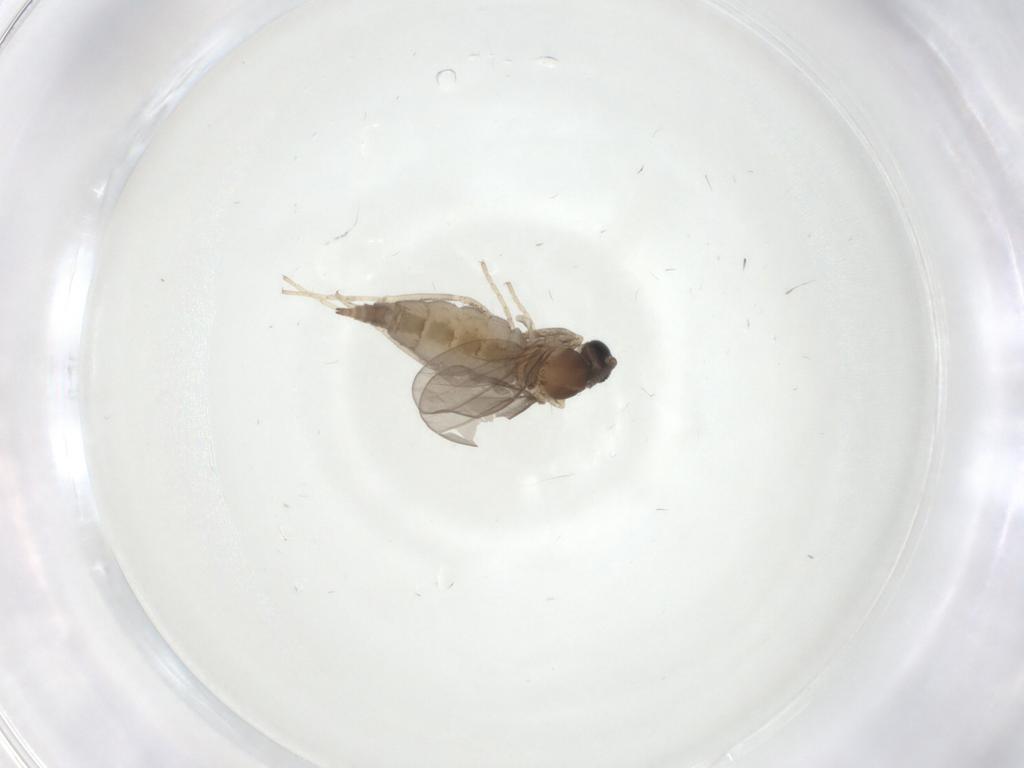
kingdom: Animalia
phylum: Arthropoda
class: Insecta
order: Diptera
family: Cecidomyiidae
